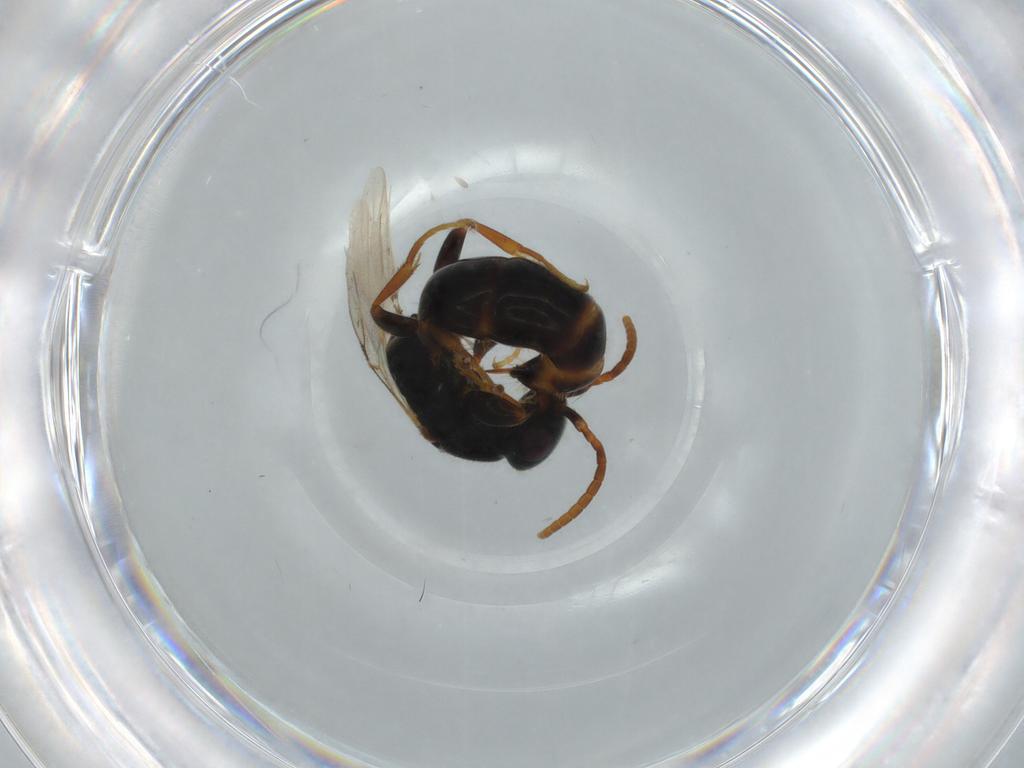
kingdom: Animalia
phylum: Arthropoda
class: Insecta
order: Hymenoptera
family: Bethylidae
